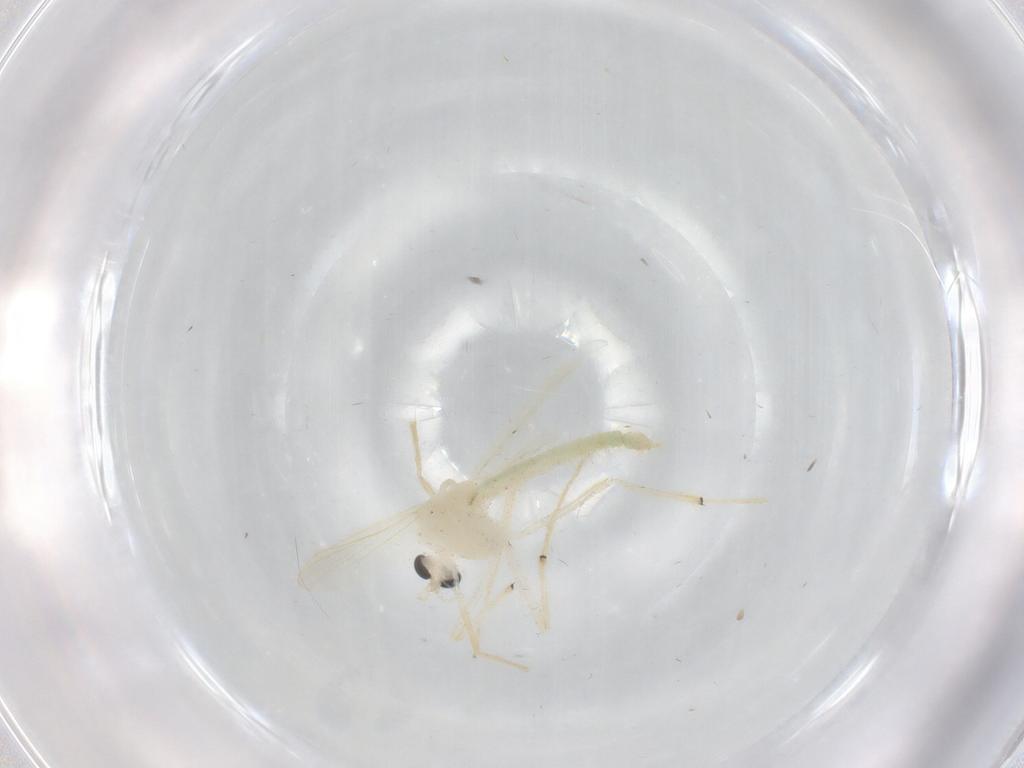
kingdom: Animalia
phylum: Arthropoda
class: Insecta
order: Diptera
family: Chironomidae
